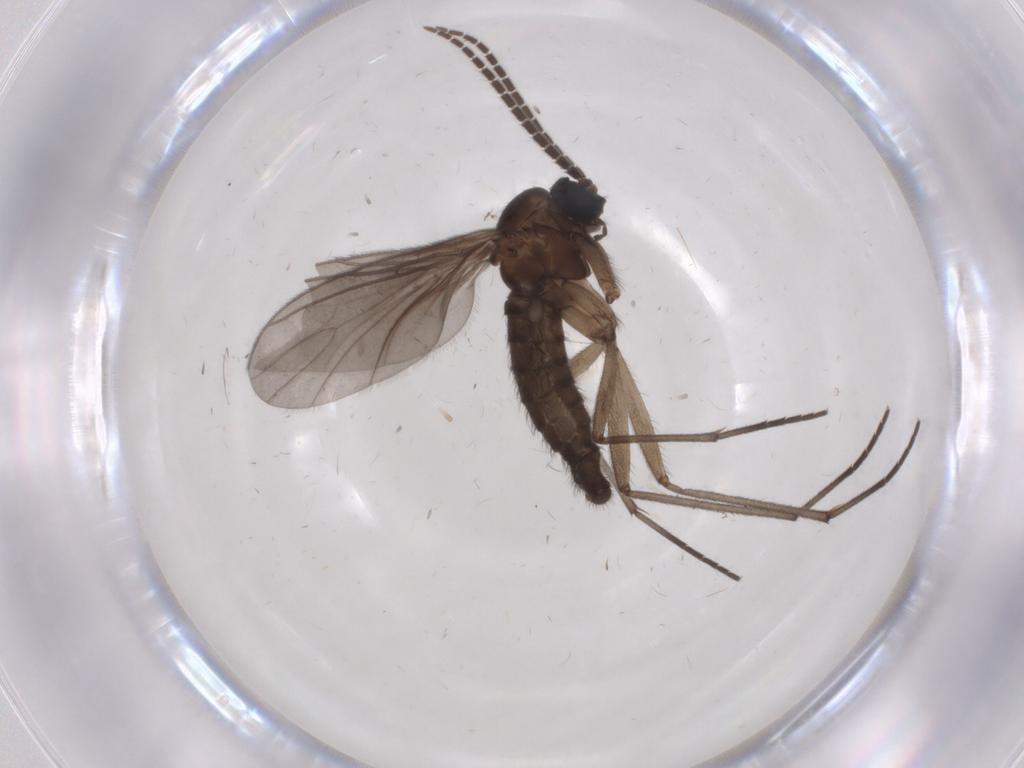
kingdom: Animalia
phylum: Arthropoda
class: Insecta
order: Diptera
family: Sciaridae
